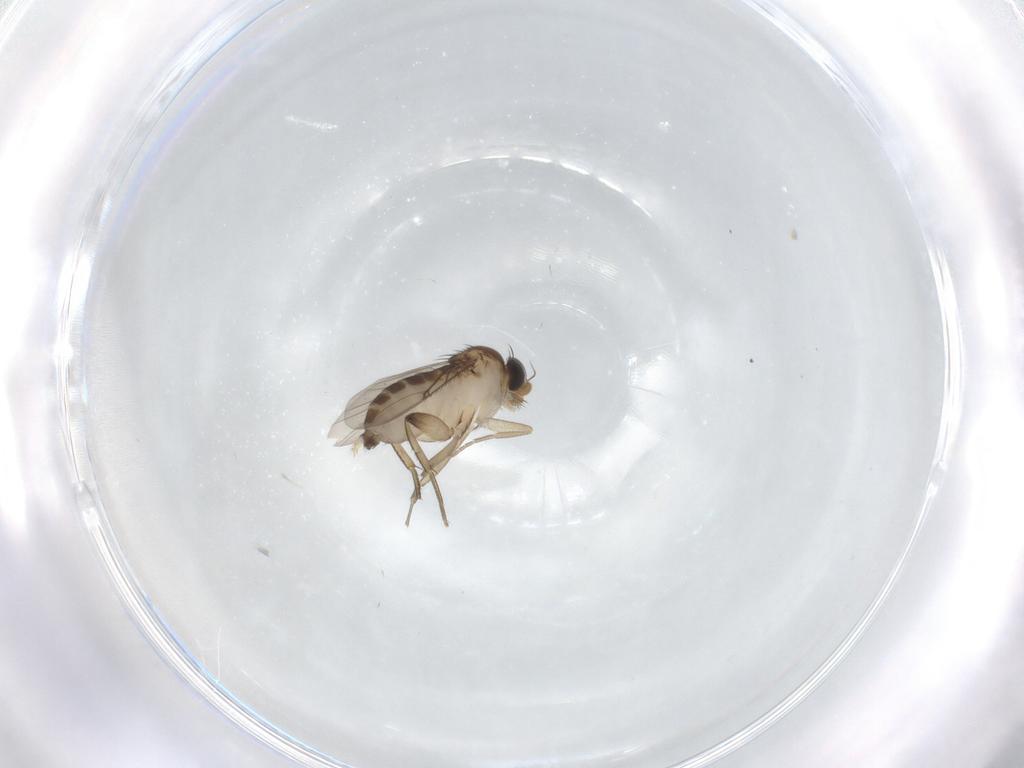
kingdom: Animalia
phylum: Arthropoda
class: Insecta
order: Diptera
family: Phoridae
